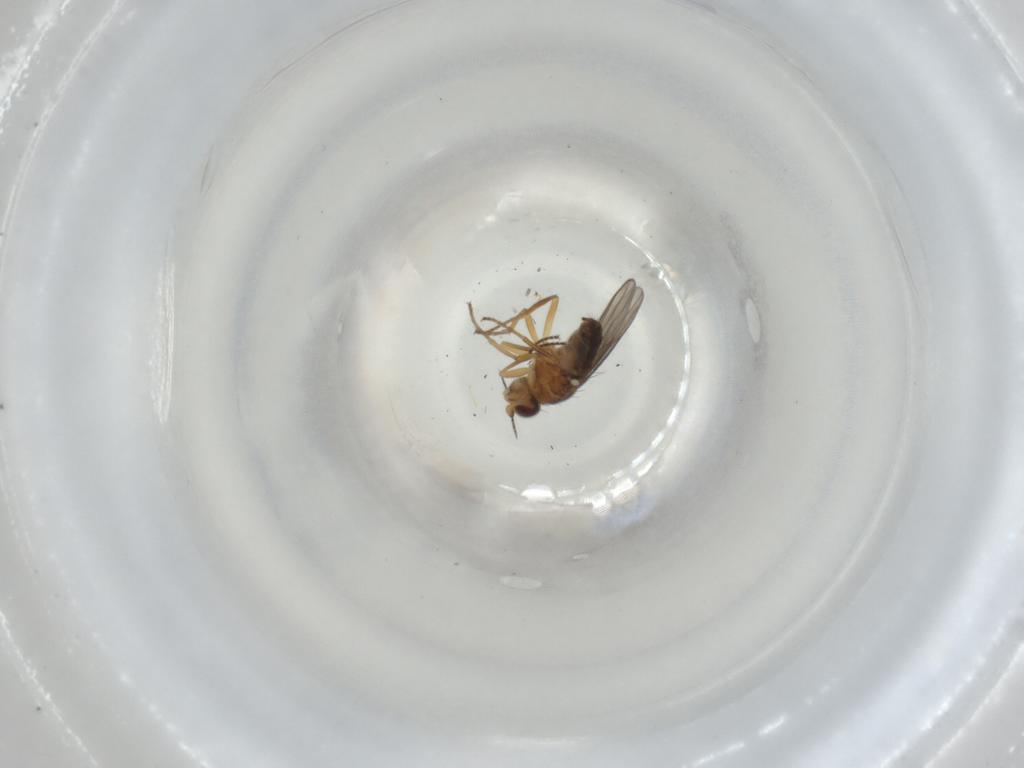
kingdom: Animalia
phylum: Arthropoda
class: Insecta
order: Diptera
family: Chloropidae
